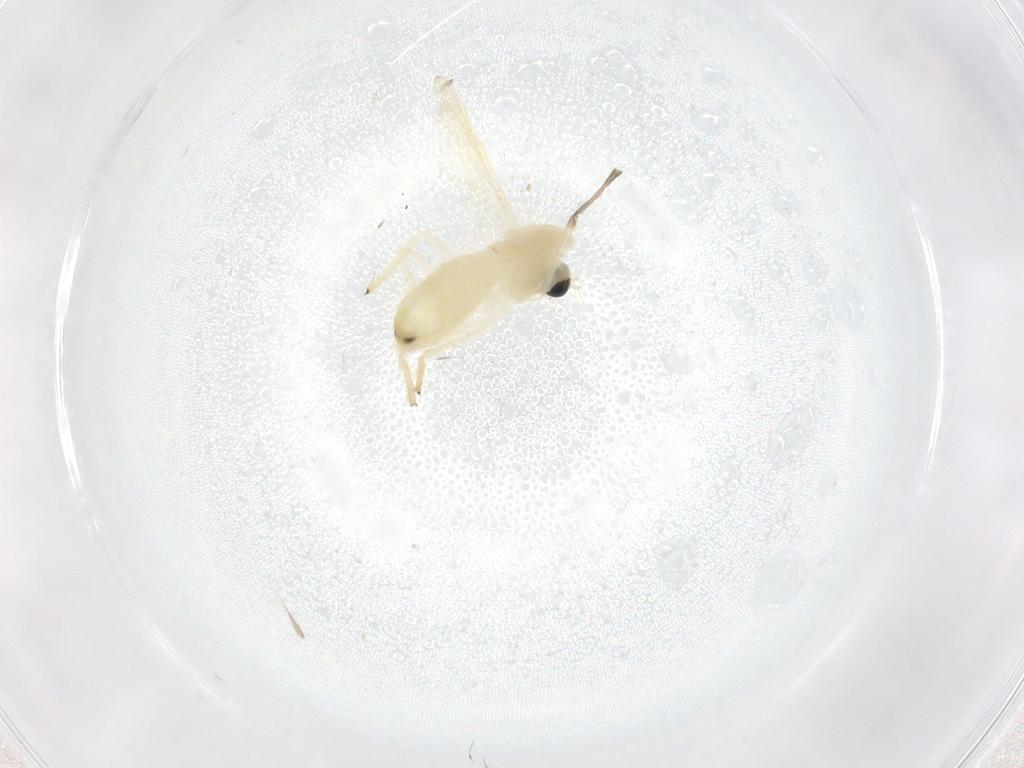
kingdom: Animalia
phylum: Arthropoda
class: Insecta
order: Diptera
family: Chironomidae
